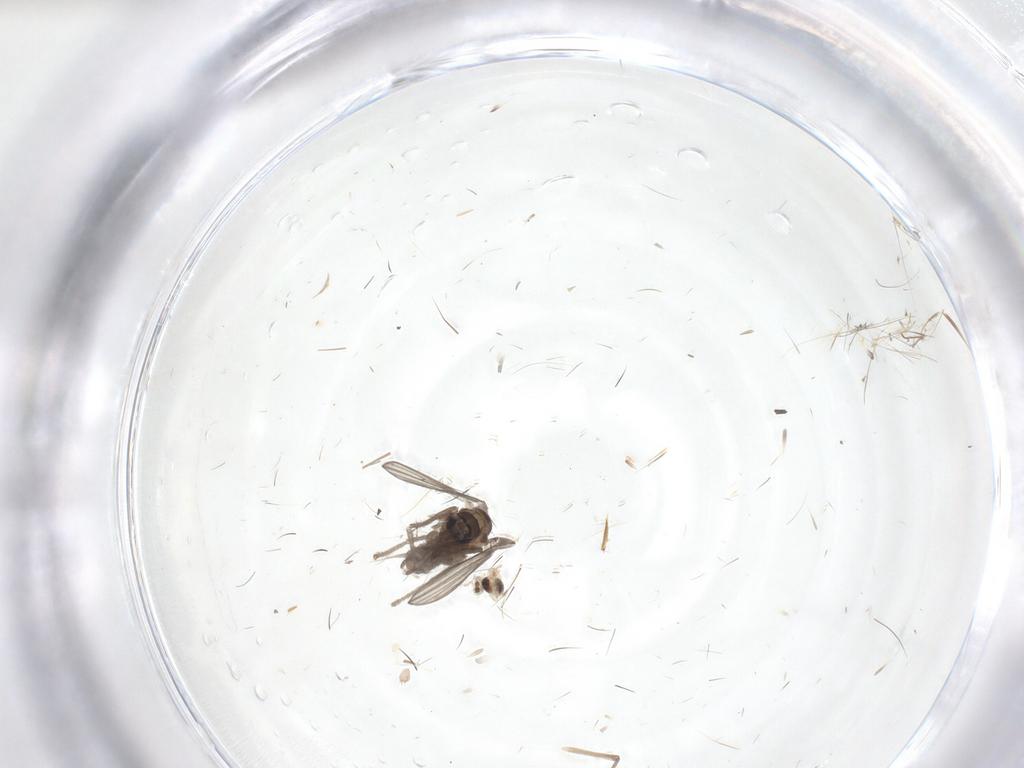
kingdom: Animalia
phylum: Arthropoda
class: Insecta
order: Diptera
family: Psychodidae
